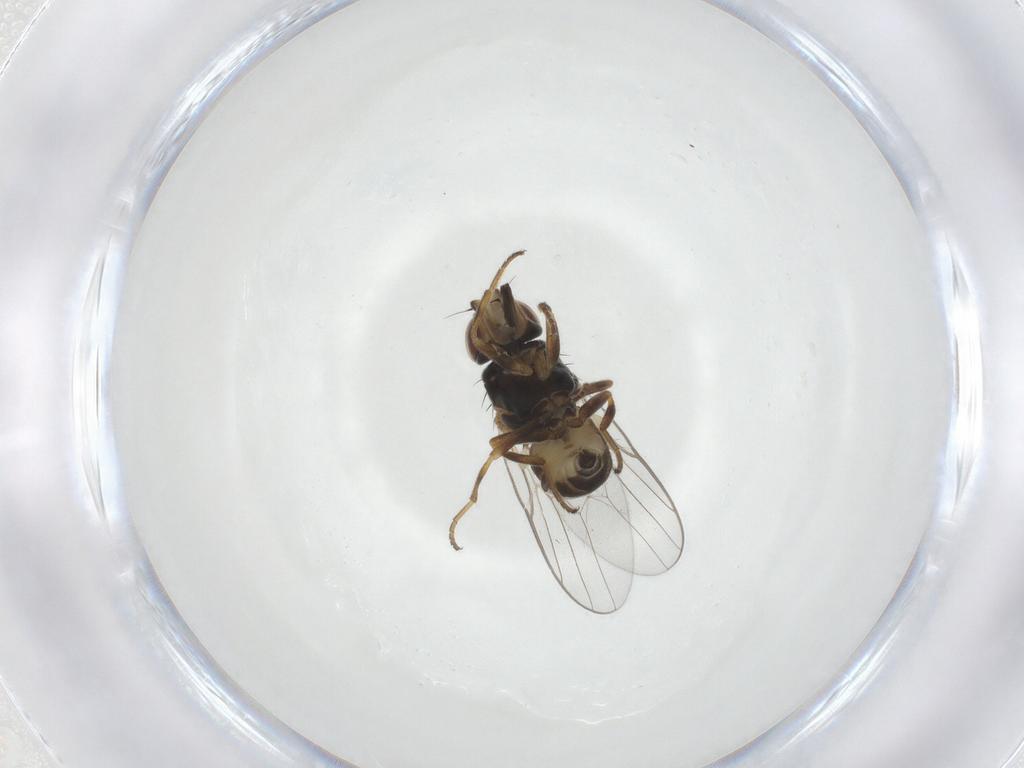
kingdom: Animalia
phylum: Arthropoda
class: Insecta
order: Diptera
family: Chloropidae
